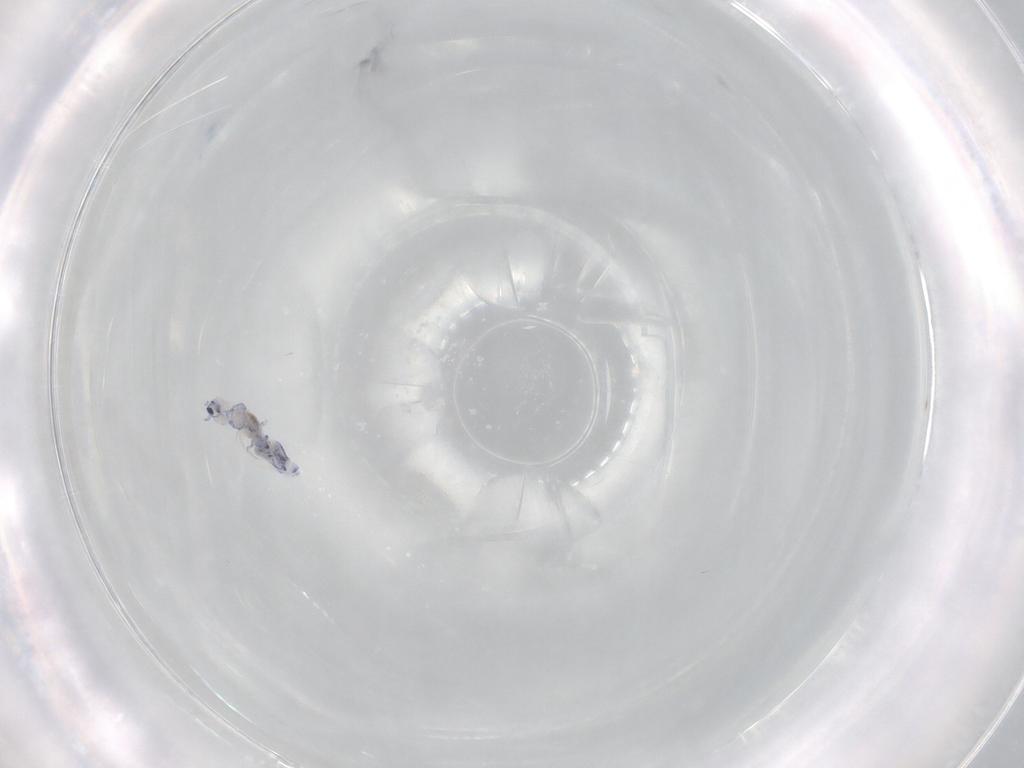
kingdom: Animalia
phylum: Arthropoda
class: Collembola
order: Entomobryomorpha
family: Entomobryidae
